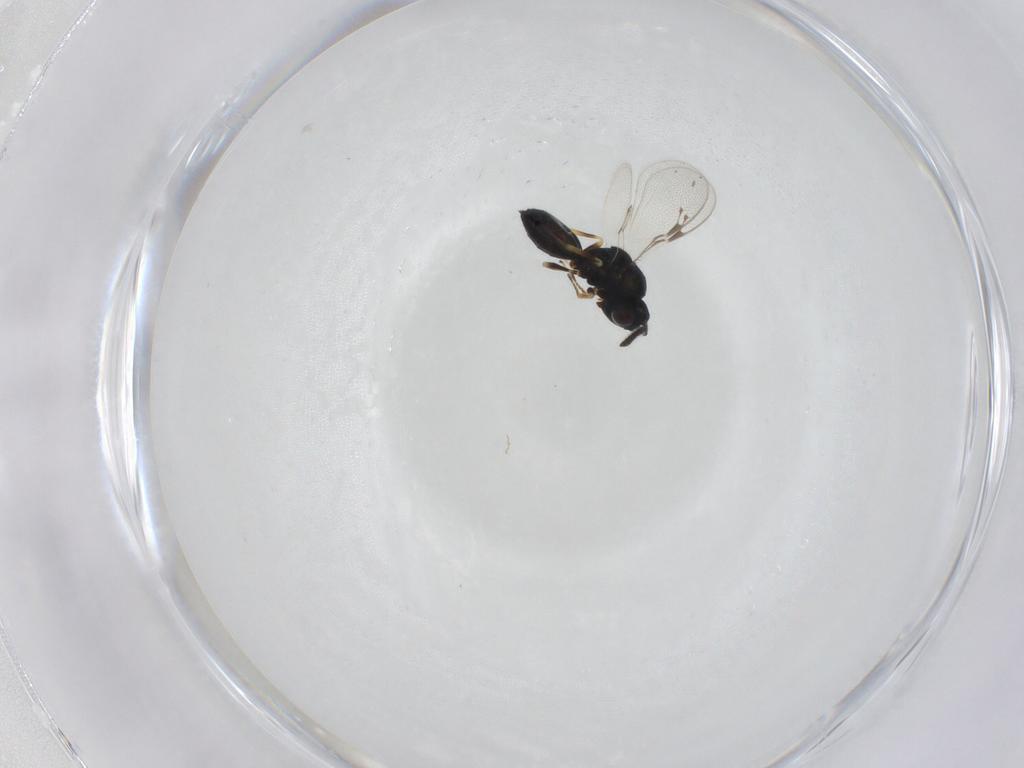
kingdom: Animalia
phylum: Arthropoda
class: Insecta
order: Hymenoptera
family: Pteromalidae
